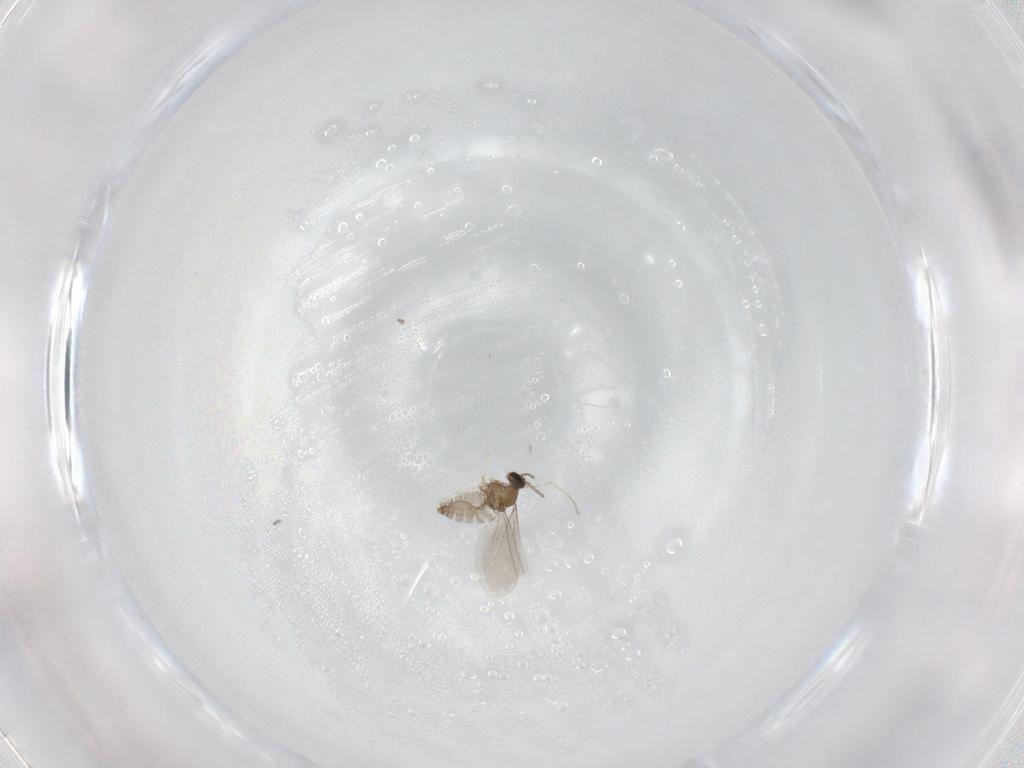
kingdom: Animalia
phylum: Arthropoda
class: Insecta
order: Diptera
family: Cecidomyiidae
